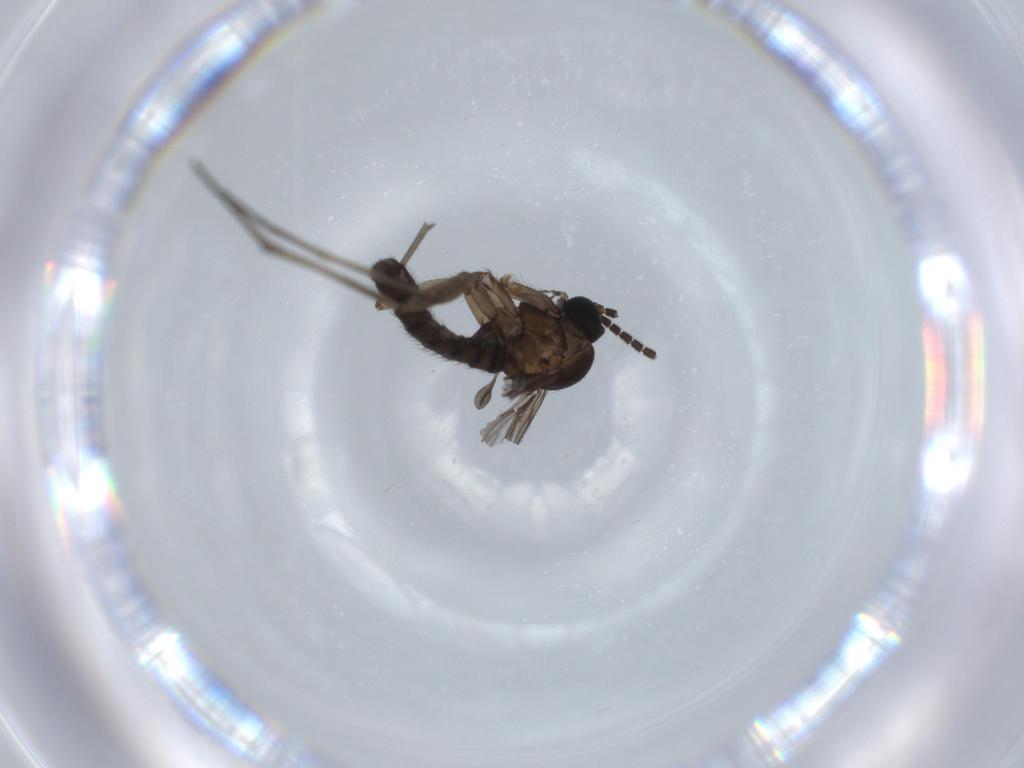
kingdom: Animalia
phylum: Arthropoda
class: Insecta
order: Diptera
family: Sciaridae
